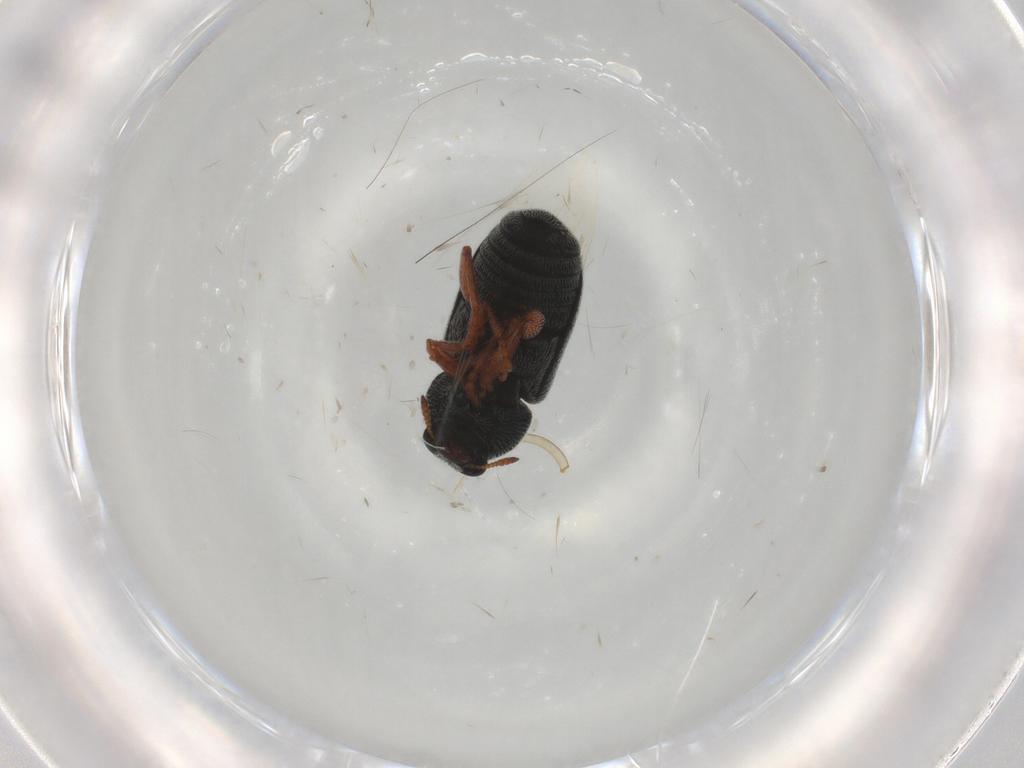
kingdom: Animalia
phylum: Arthropoda
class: Insecta
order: Coleoptera
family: Anthribidae
